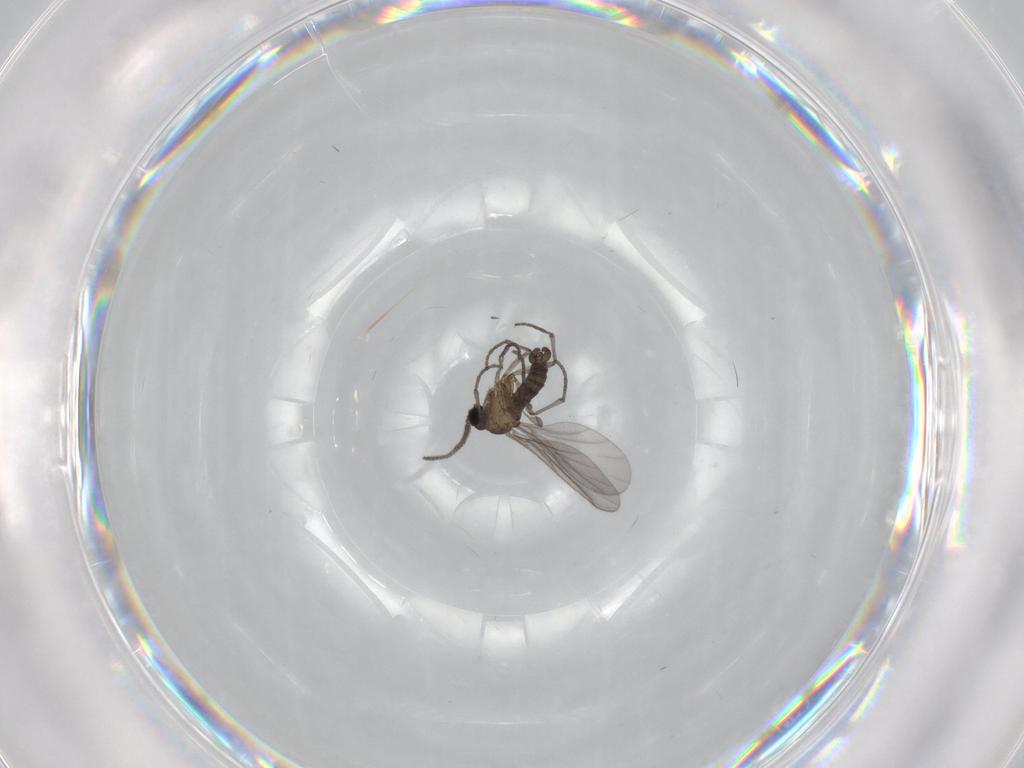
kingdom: Animalia
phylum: Arthropoda
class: Insecta
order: Diptera
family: Sciaridae
